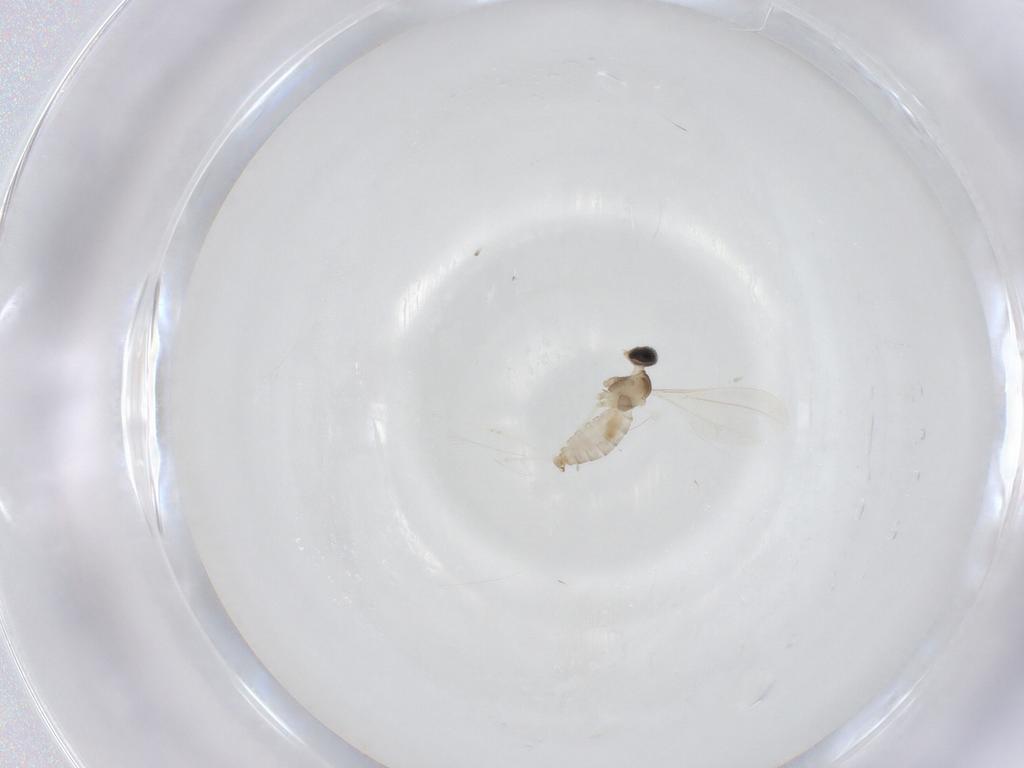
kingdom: Animalia
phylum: Arthropoda
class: Insecta
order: Diptera
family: Cecidomyiidae
